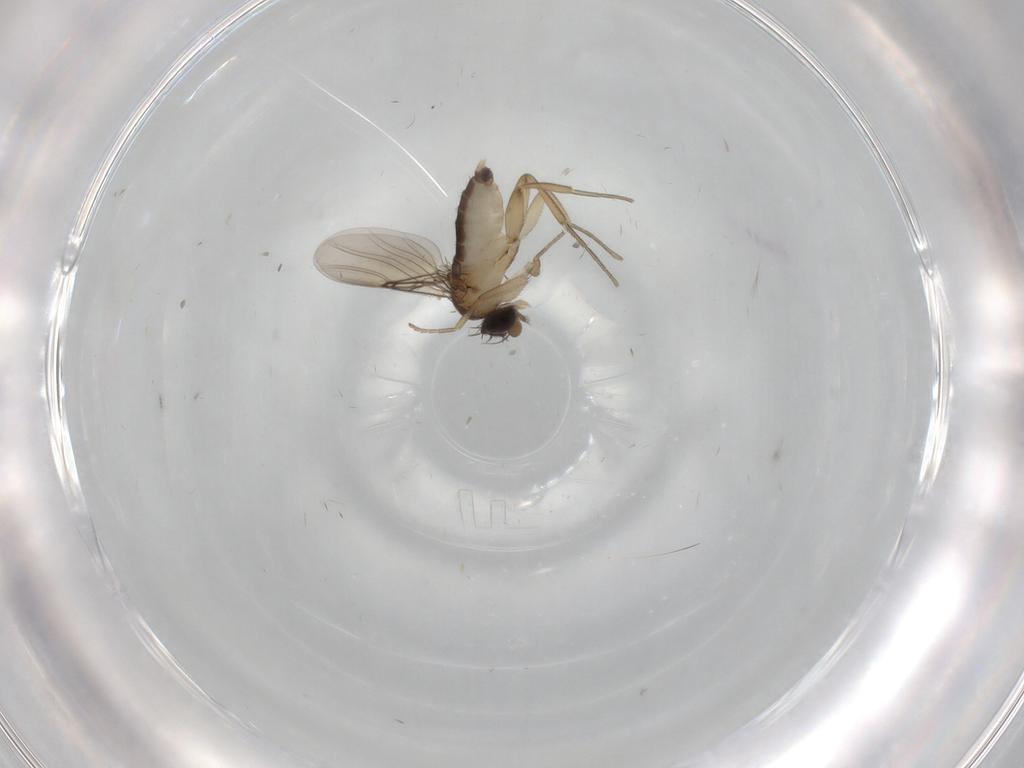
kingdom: Animalia
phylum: Arthropoda
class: Insecta
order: Diptera
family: Phoridae
